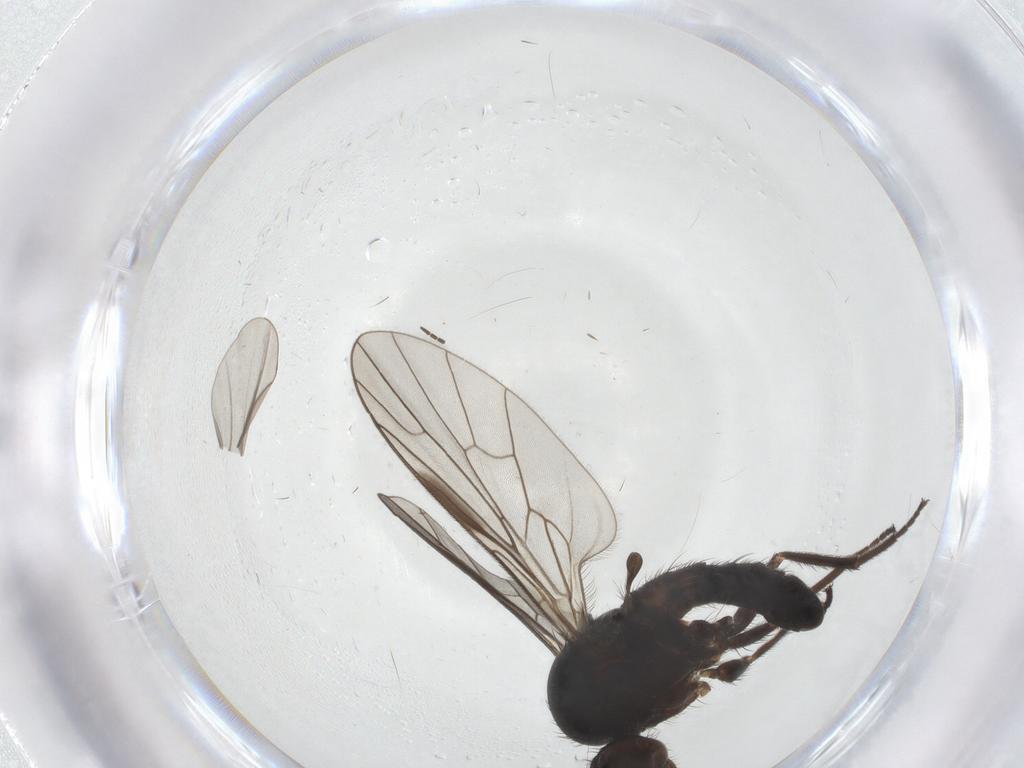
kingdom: Animalia
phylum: Arthropoda
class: Insecta
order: Diptera
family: Empididae
